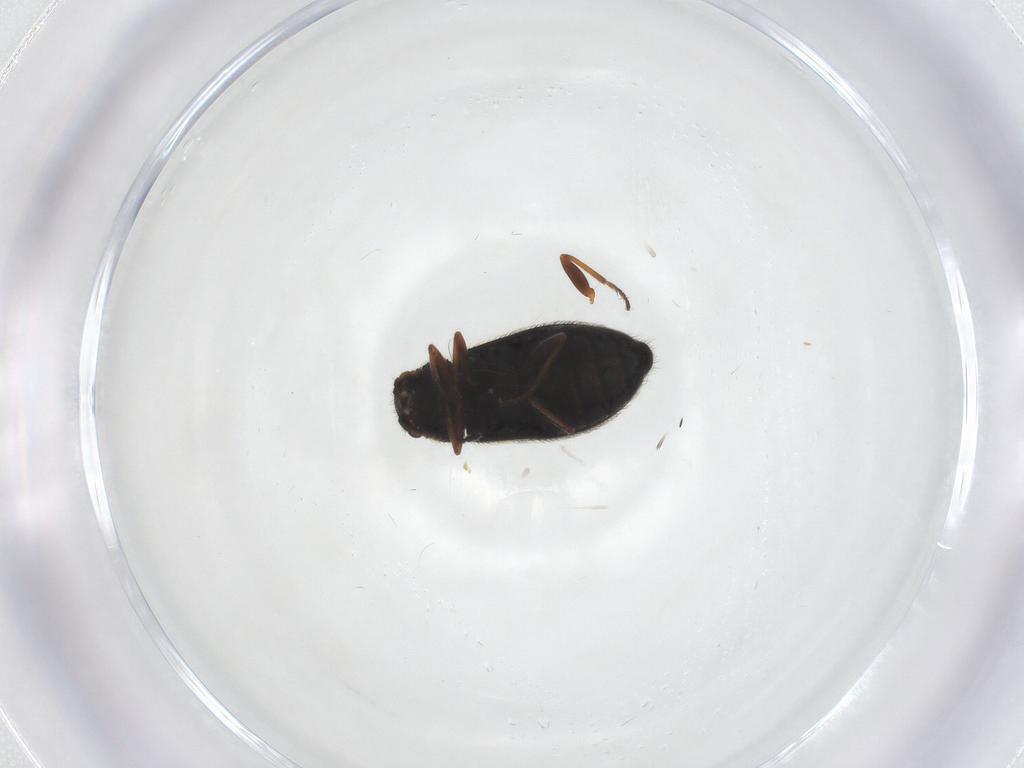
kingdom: Animalia
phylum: Arthropoda
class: Insecta
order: Coleoptera
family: Melyridae
